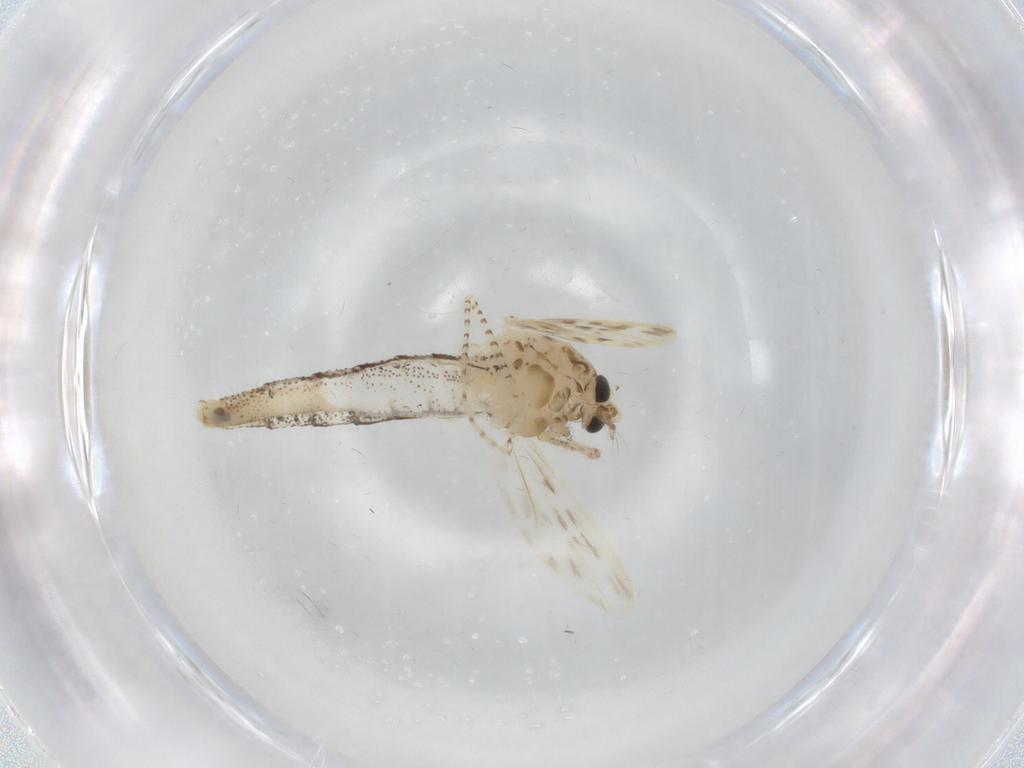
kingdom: Animalia
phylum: Arthropoda
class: Insecta
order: Diptera
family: Chaoboridae
